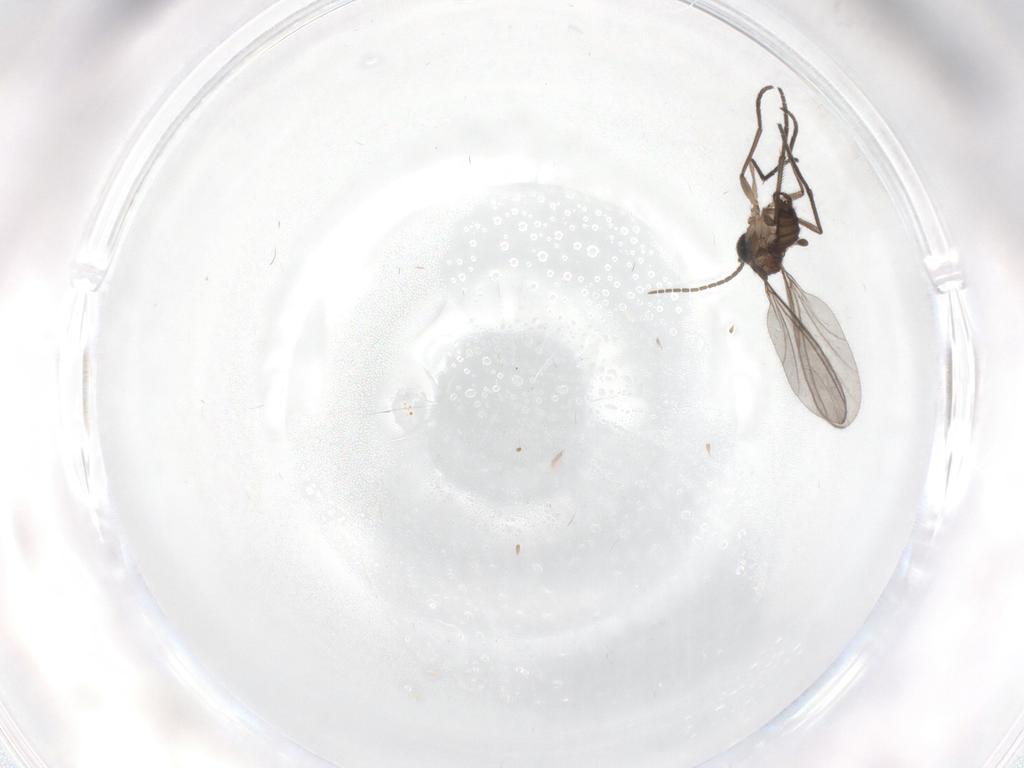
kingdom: Animalia
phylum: Arthropoda
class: Insecta
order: Diptera
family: Sciaridae
